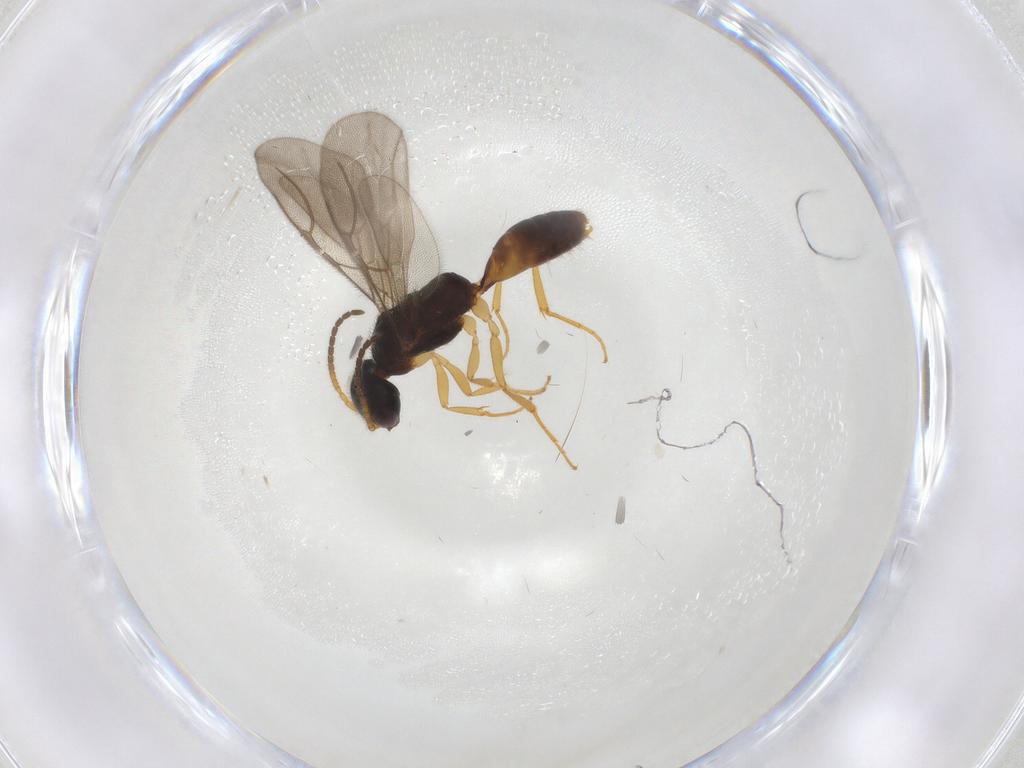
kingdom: Animalia
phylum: Arthropoda
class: Insecta
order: Hymenoptera
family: Bethylidae
